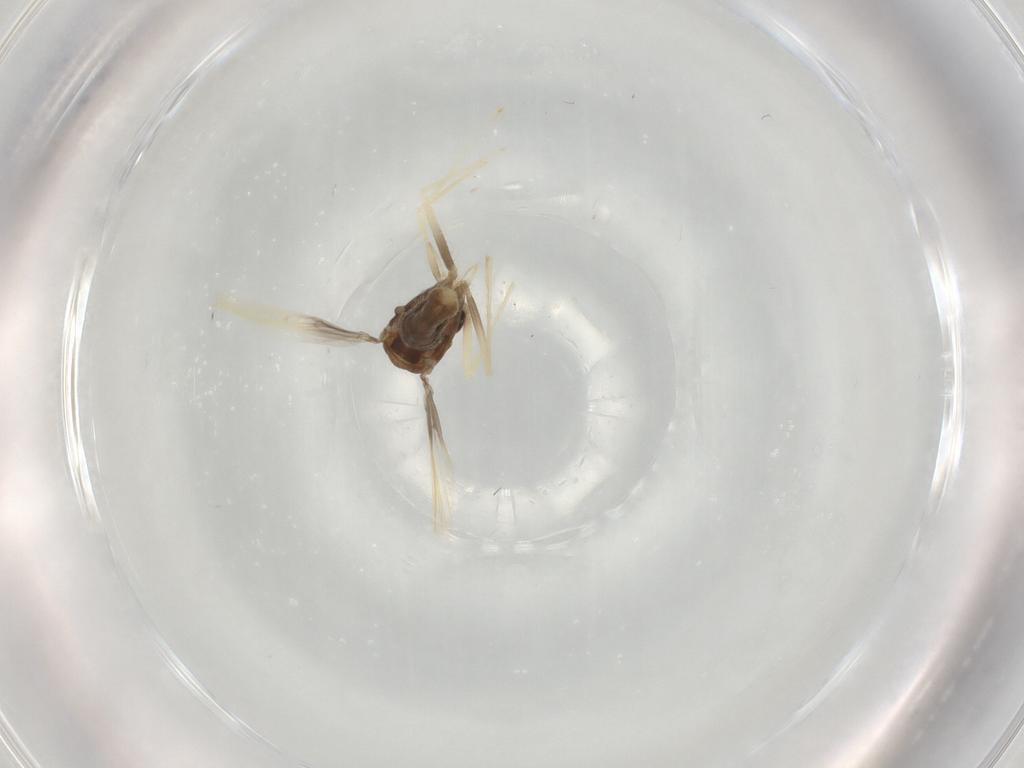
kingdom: Animalia
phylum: Arthropoda
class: Insecta
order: Diptera
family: Chironomidae
